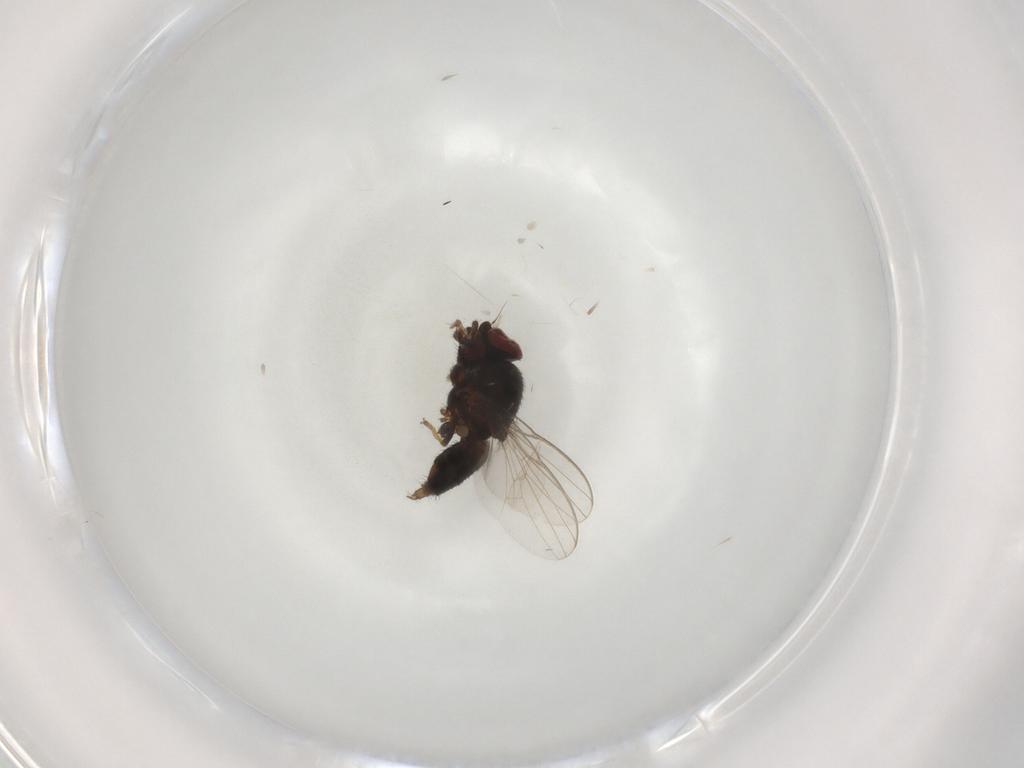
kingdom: Animalia
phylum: Arthropoda
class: Insecta
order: Diptera
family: Milichiidae
